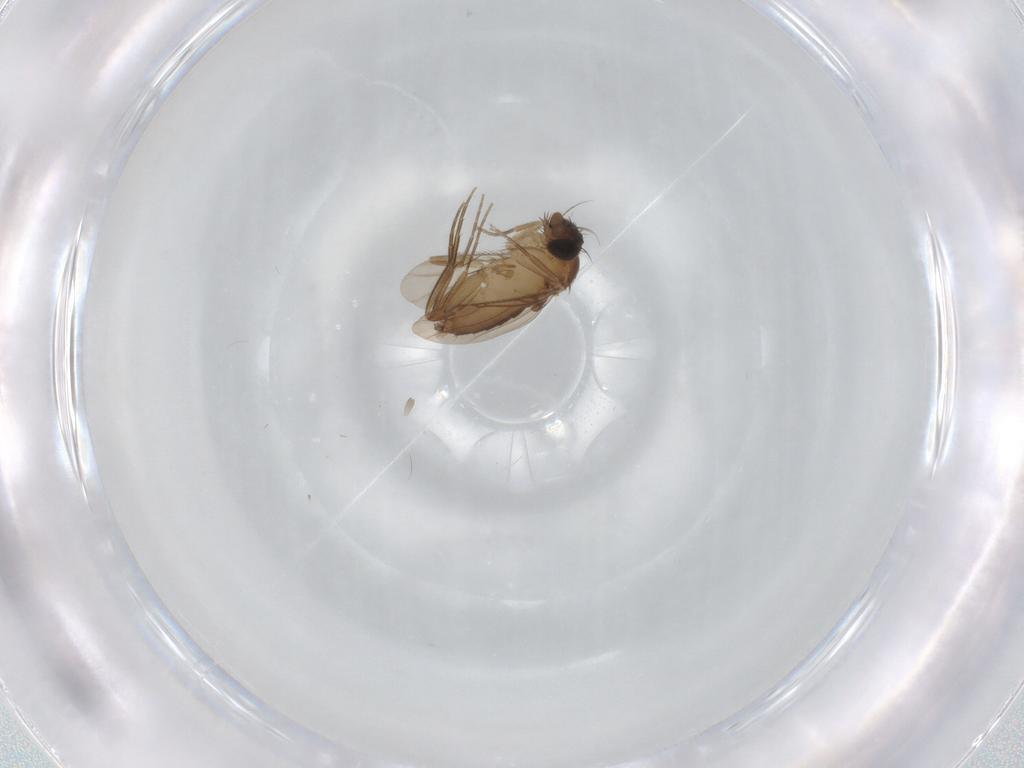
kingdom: Animalia
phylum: Arthropoda
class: Insecta
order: Diptera
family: Phoridae
